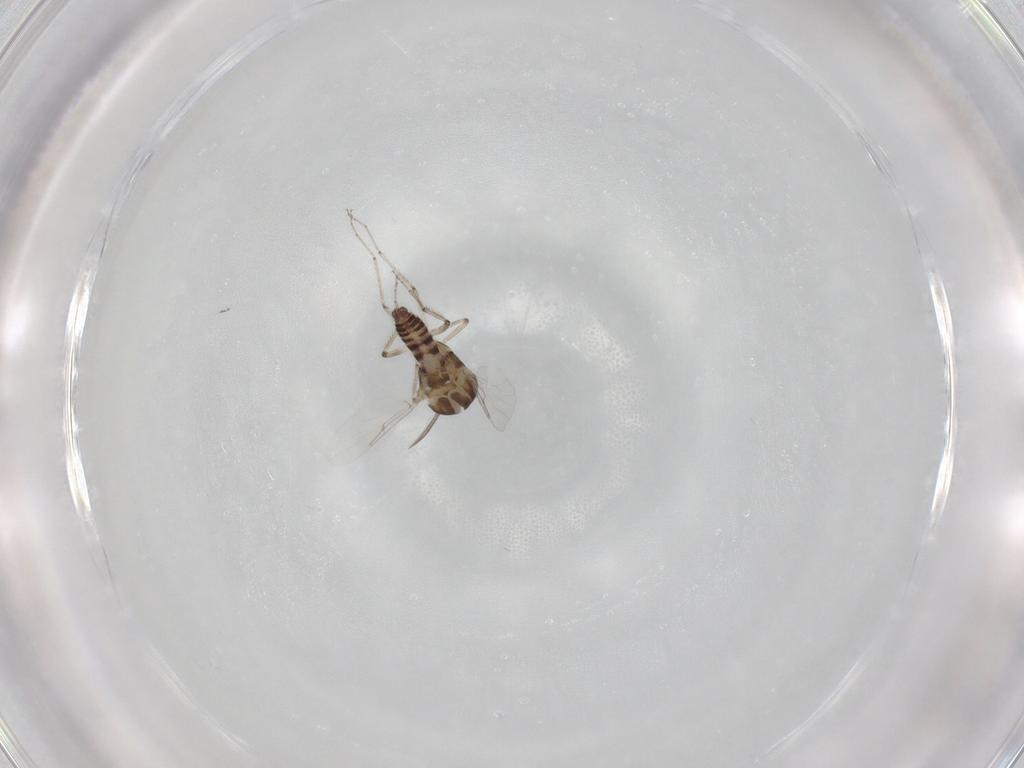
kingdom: Animalia
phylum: Arthropoda
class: Insecta
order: Diptera
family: Ceratopogonidae
